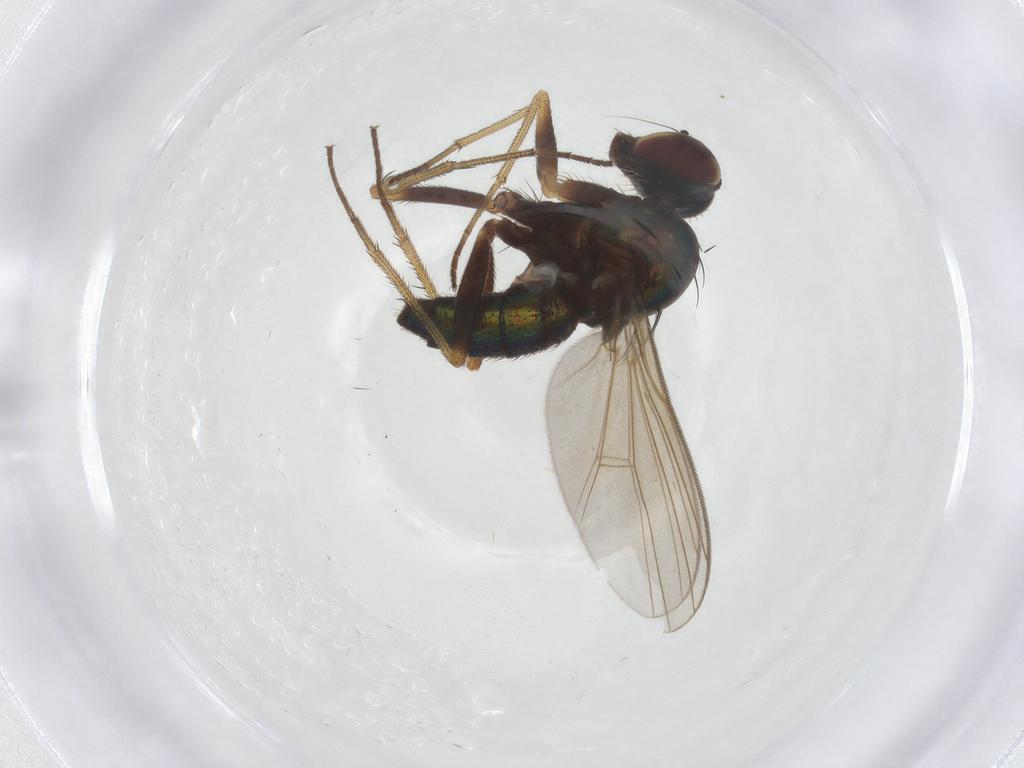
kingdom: Animalia
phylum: Arthropoda
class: Insecta
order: Diptera
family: Dolichopodidae
